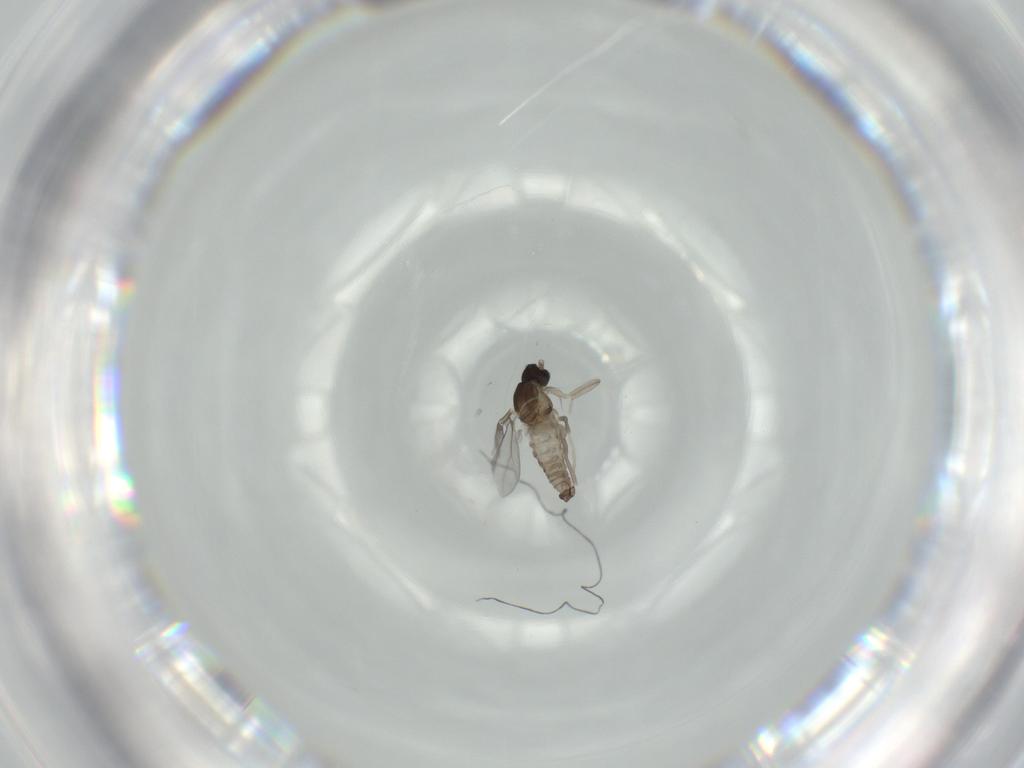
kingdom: Animalia
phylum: Arthropoda
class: Insecta
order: Diptera
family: Cecidomyiidae
